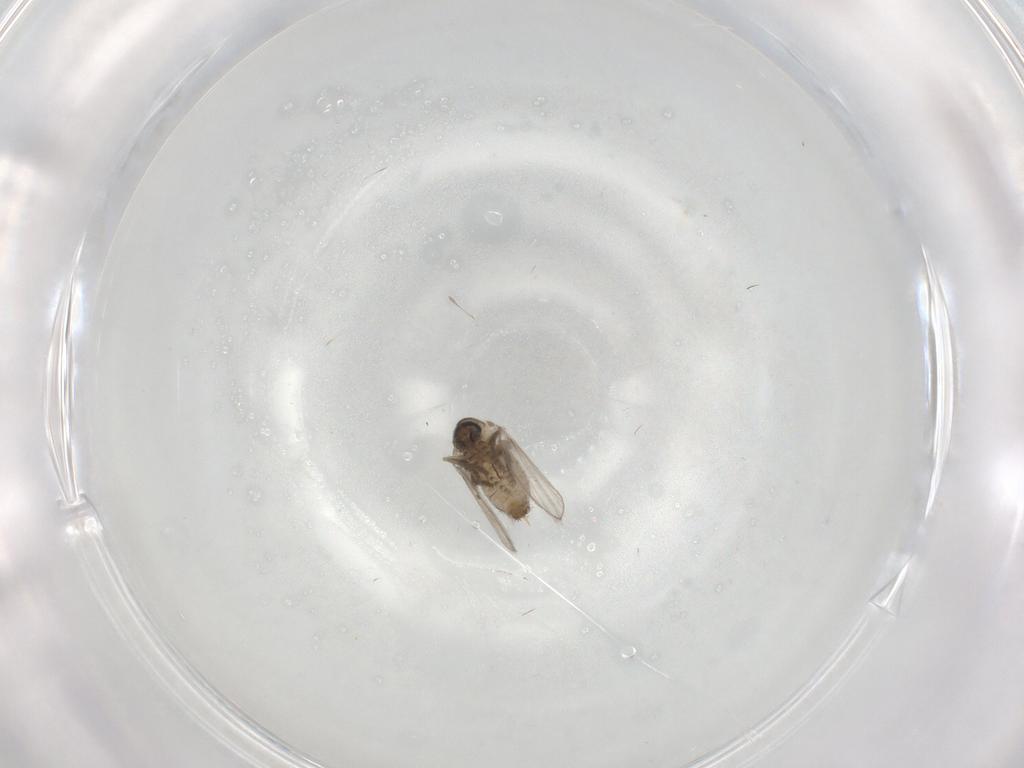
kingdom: Animalia
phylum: Arthropoda
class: Insecta
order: Diptera
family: Psychodidae
